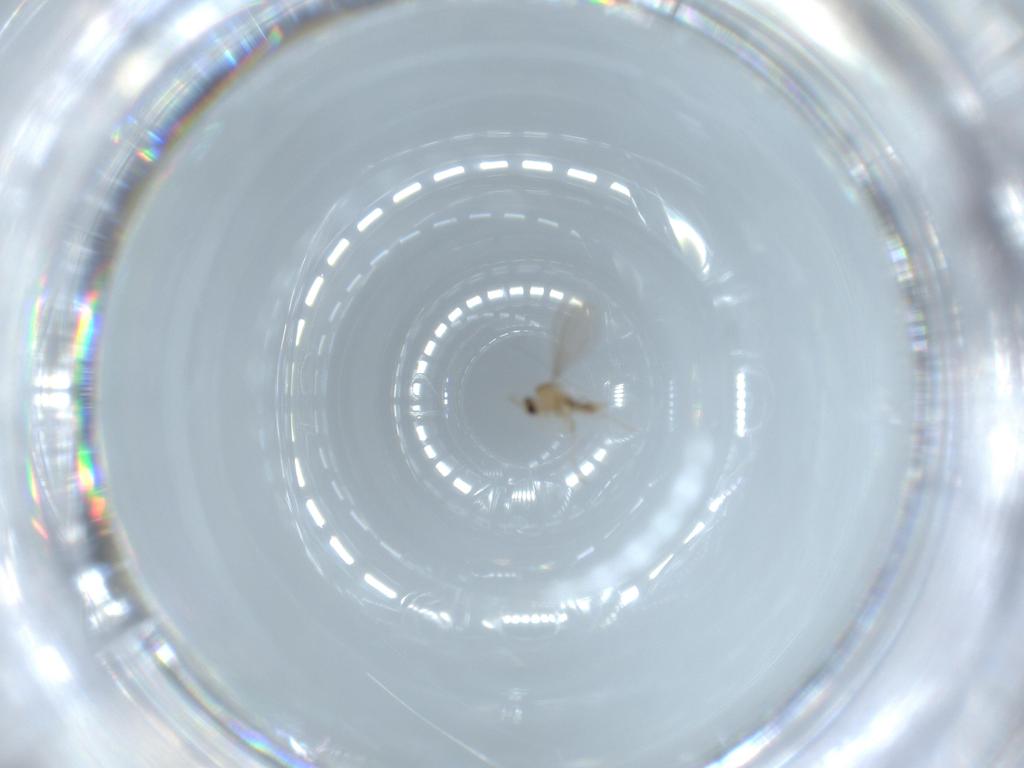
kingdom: Animalia
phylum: Arthropoda
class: Insecta
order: Diptera
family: Cecidomyiidae
